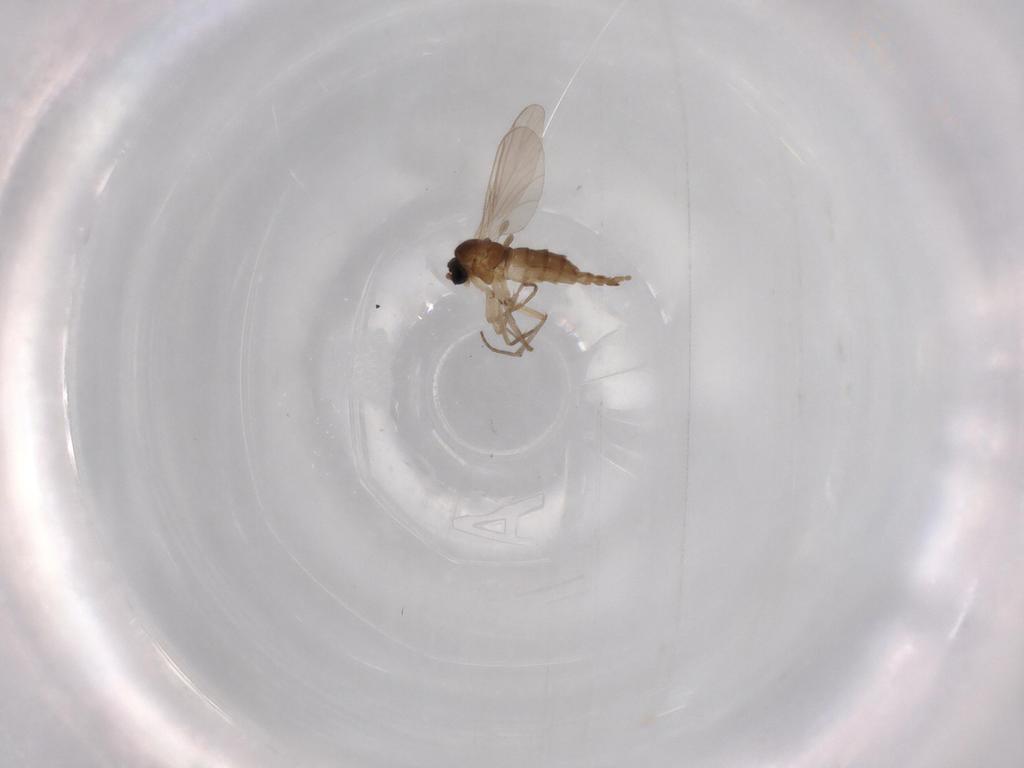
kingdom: Animalia
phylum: Arthropoda
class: Insecta
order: Diptera
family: Sciaridae
